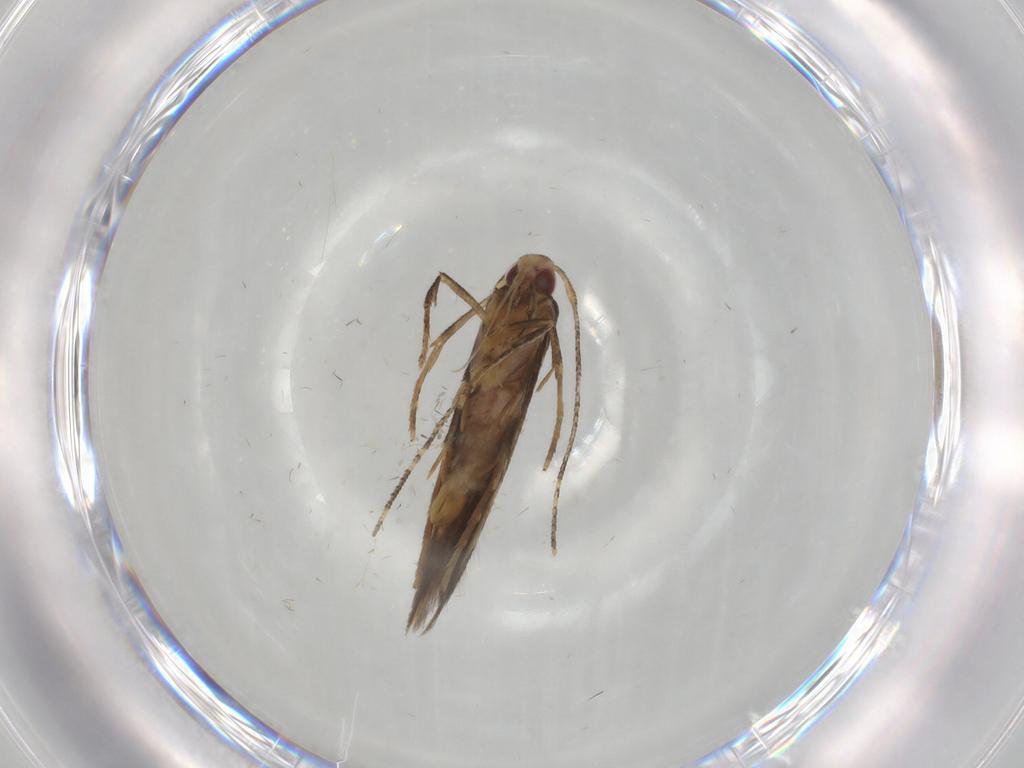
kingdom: Animalia
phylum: Arthropoda
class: Insecta
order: Lepidoptera
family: Cosmopterigidae
